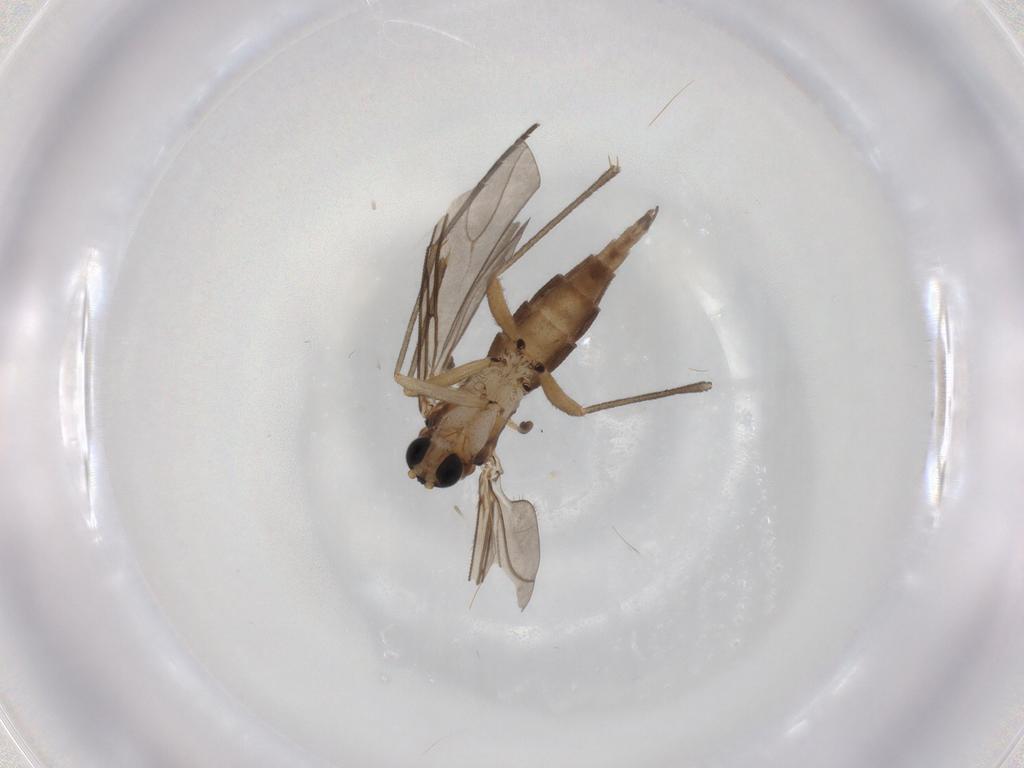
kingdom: Animalia
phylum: Arthropoda
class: Insecta
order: Diptera
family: Sciaridae
